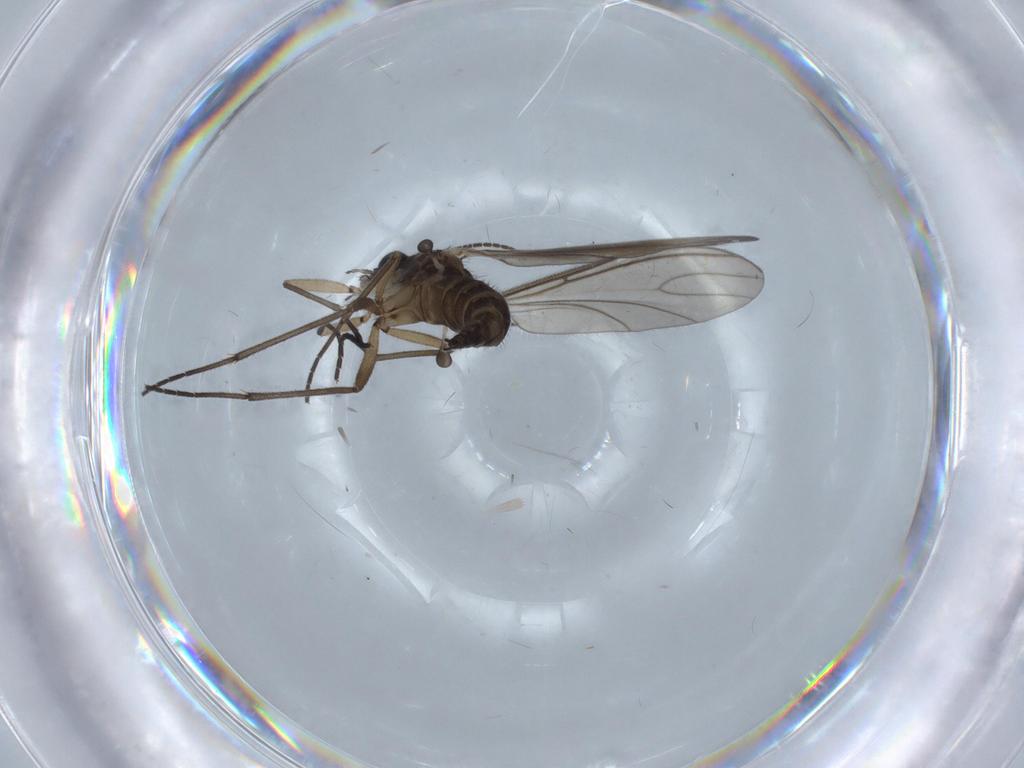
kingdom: Animalia
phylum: Arthropoda
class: Insecta
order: Diptera
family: Sciaridae
